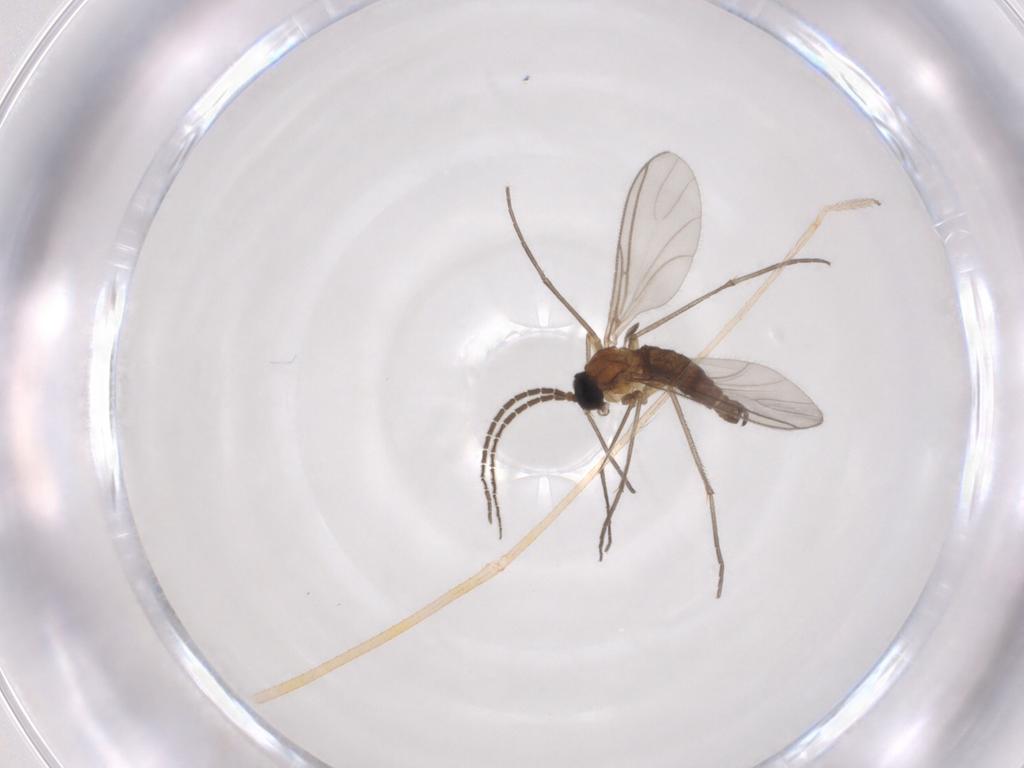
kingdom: Animalia
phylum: Arthropoda
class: Insecta
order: Diptera
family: Sciaridae
